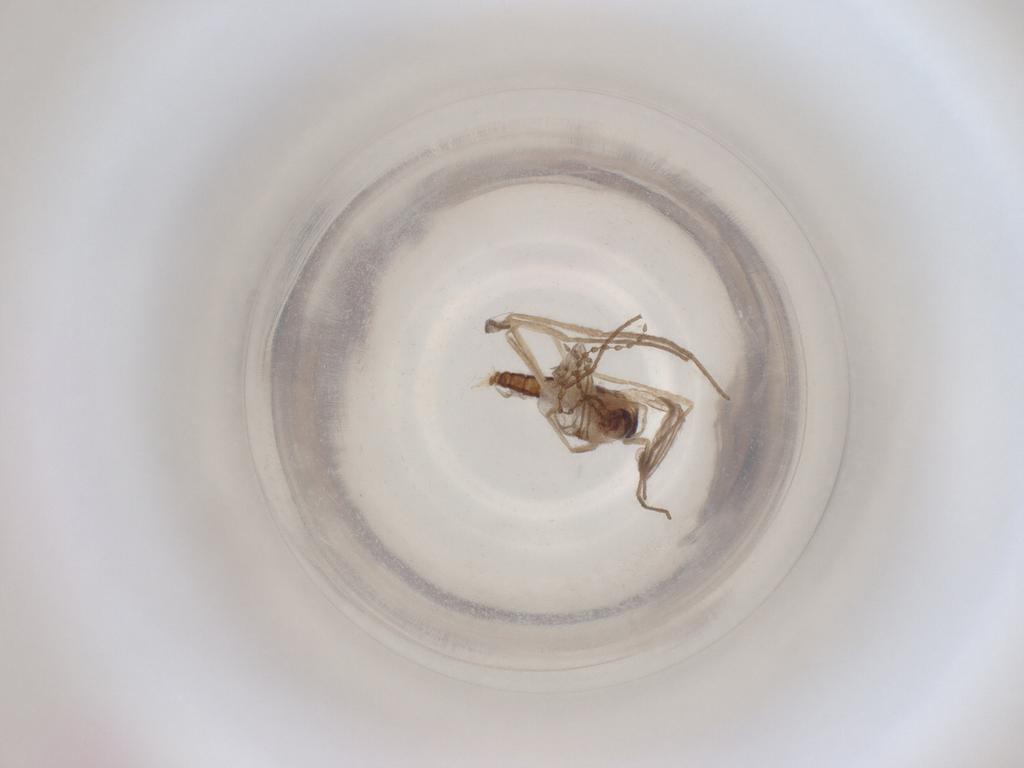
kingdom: Animalia
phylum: Arthropoda
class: Insecta
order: Diptera
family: Cecidomyiidae
